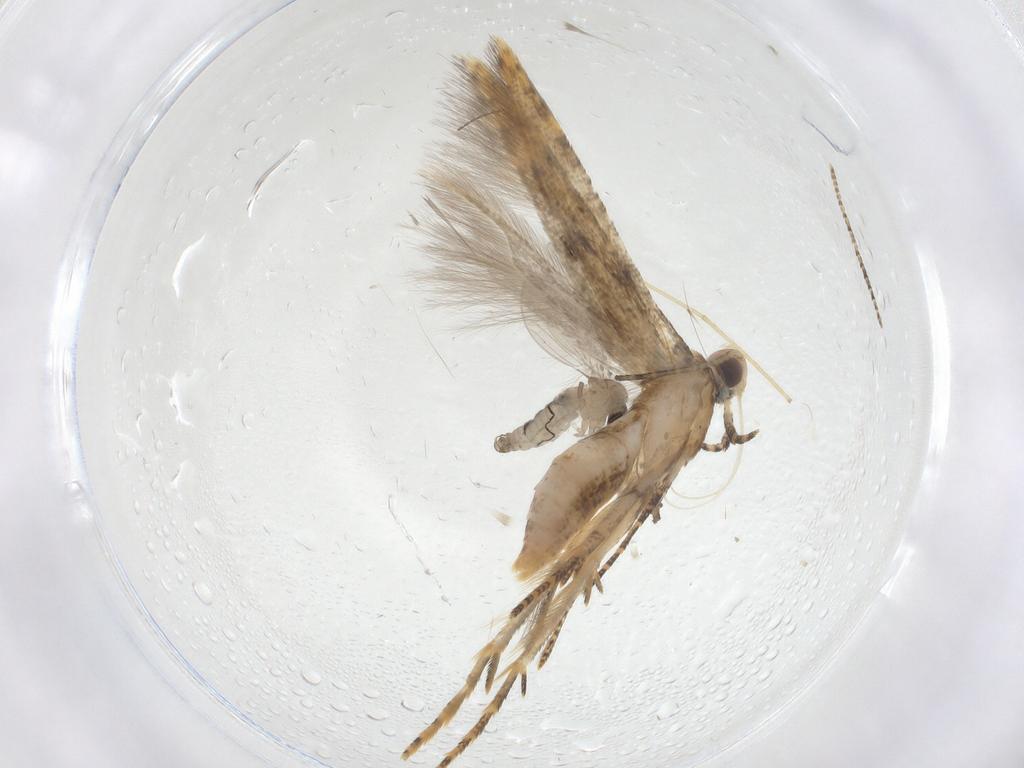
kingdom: Animalia
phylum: Arthropoda
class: Insecta
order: Diptera
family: Psychodidae
